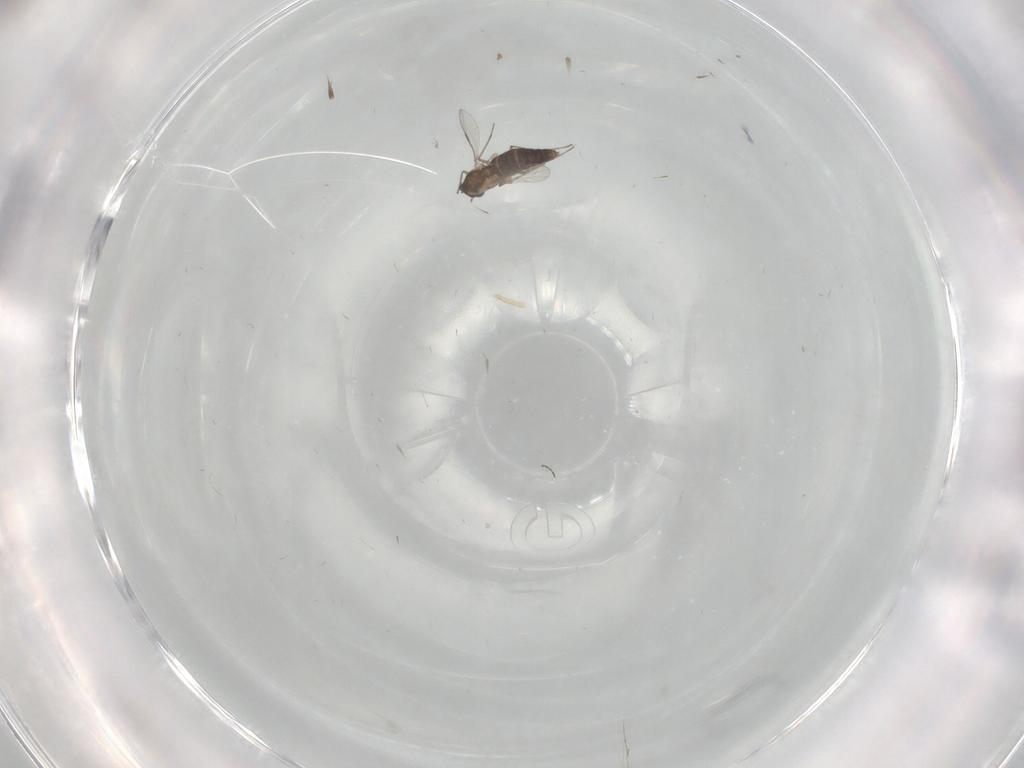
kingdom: Animalia
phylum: Arthropoda
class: Insecta
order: Diptera
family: Chironomidae
